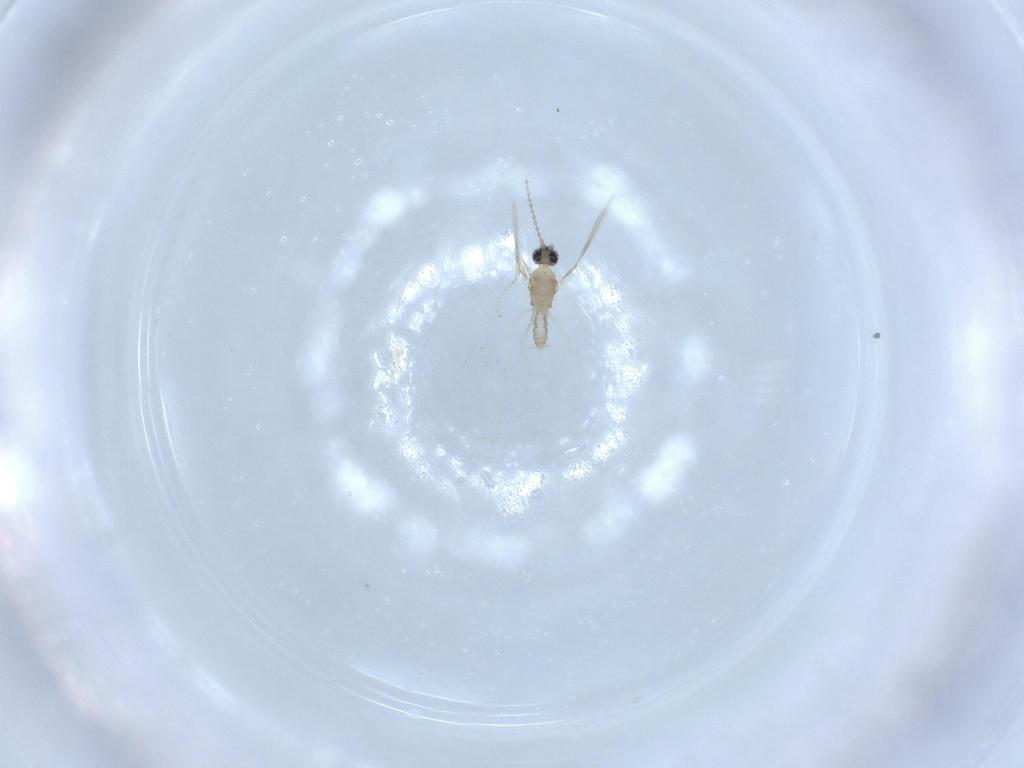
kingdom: Animalia
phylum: Arthropoda
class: Insecta
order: Diptera
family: Cecidomyiidae
